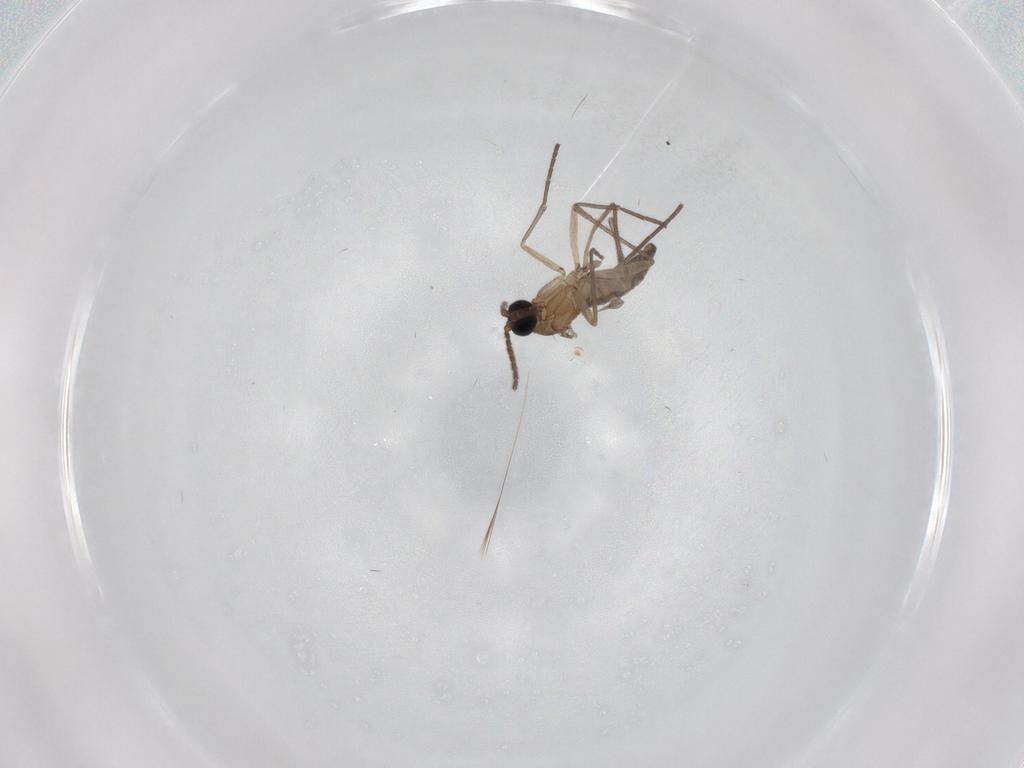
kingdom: Animalia
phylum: Arthropoda
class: Insecta
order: Diptera
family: Sciaridae
